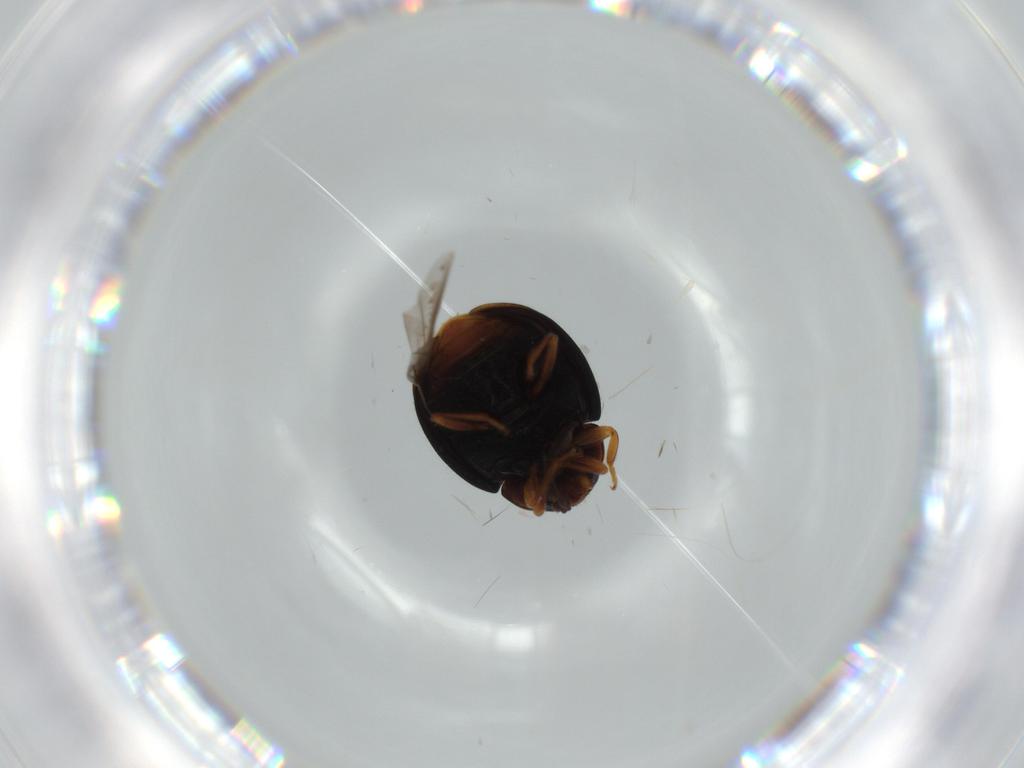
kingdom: Animalia
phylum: Arthropoda
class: Insecta
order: Coleoptera
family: Coccinellidae
